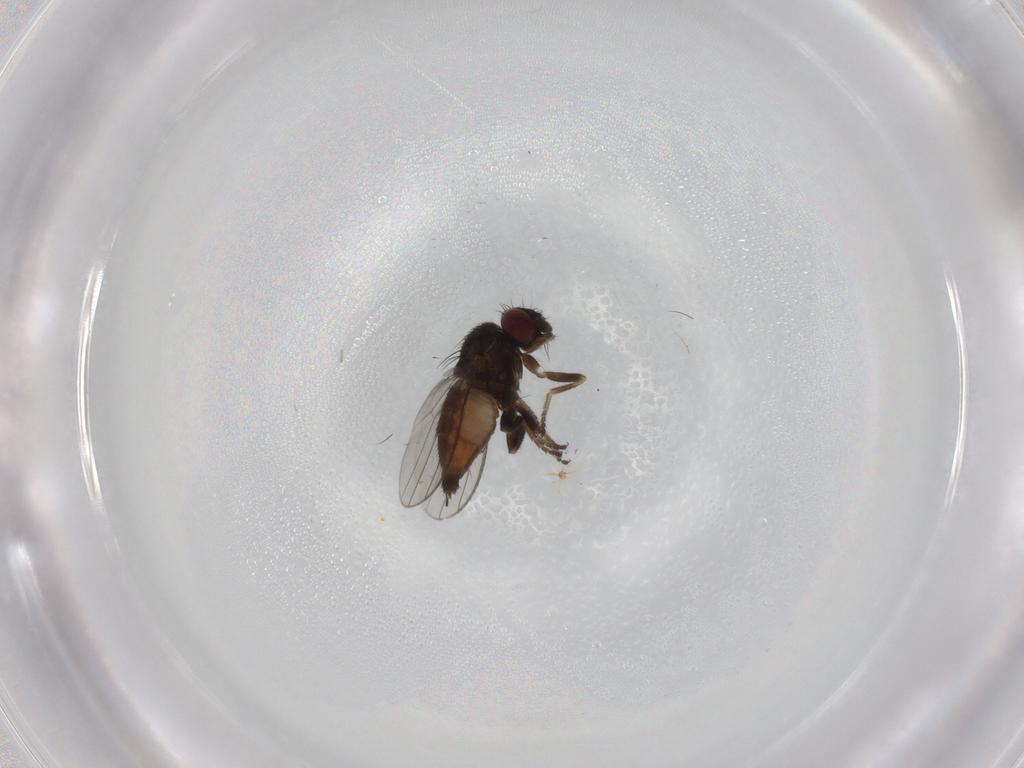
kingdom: Animalia
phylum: Arthropoda
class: Insecta
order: Diptera
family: Milichiidae
